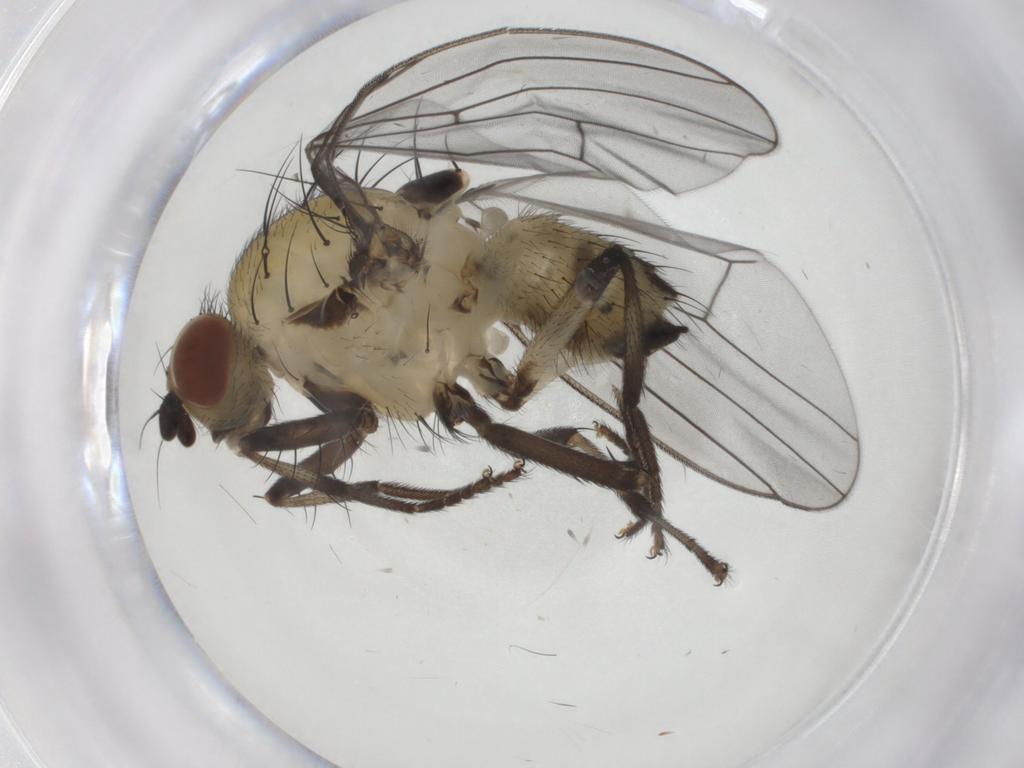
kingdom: Animalia
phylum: Arthropoda
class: Insecta
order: Diptera
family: Lauxaniidae
